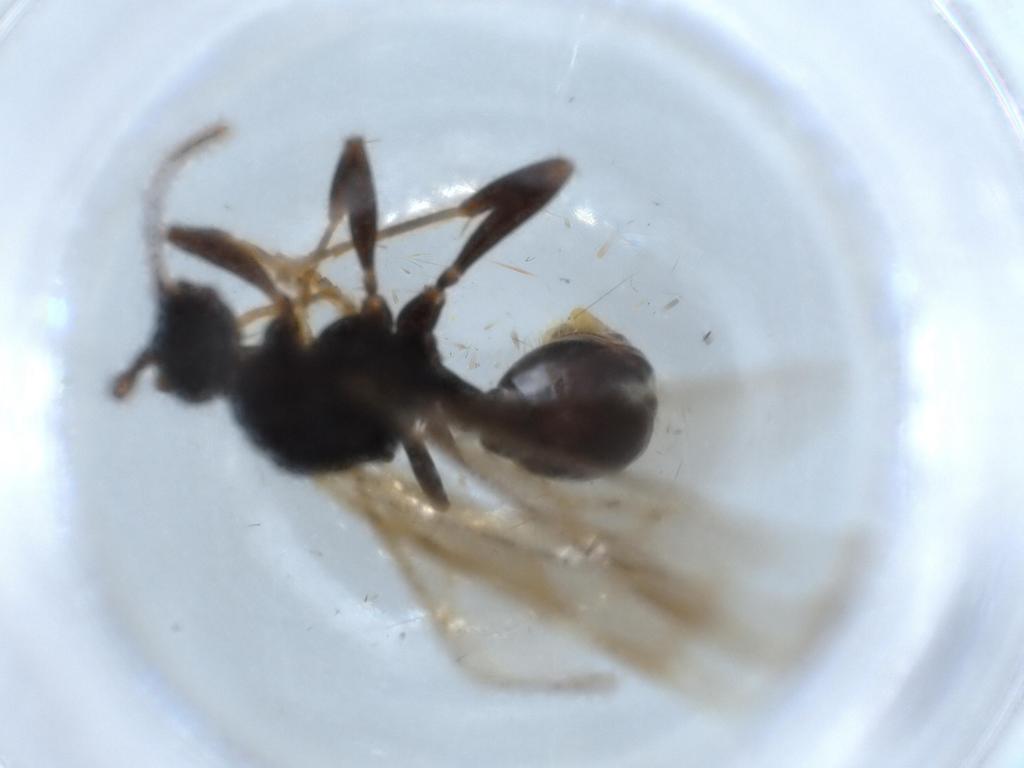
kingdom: Animalia
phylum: Arthropoda
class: Insecta
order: Hymenoptera
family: Formicidae
